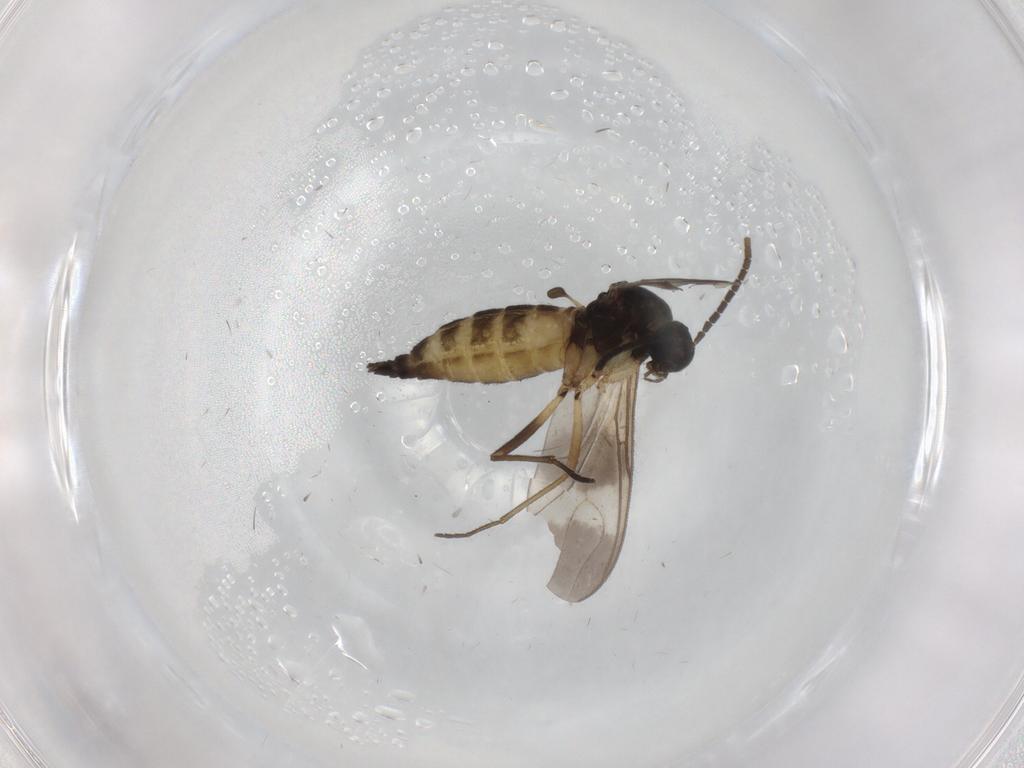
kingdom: Animalia
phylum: Arthropoda
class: Insecta
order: Diptera
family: Sciaridae
